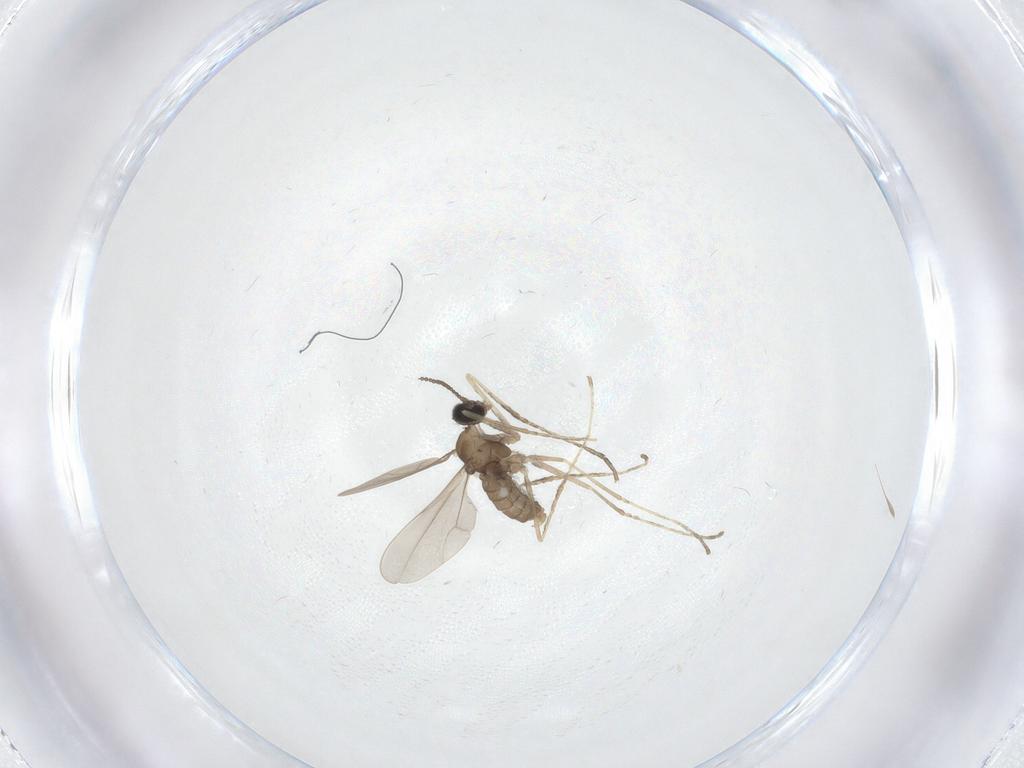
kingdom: Animalia
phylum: Arthropoda
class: Insecta
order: Diptera
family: Cecidomyiidae
